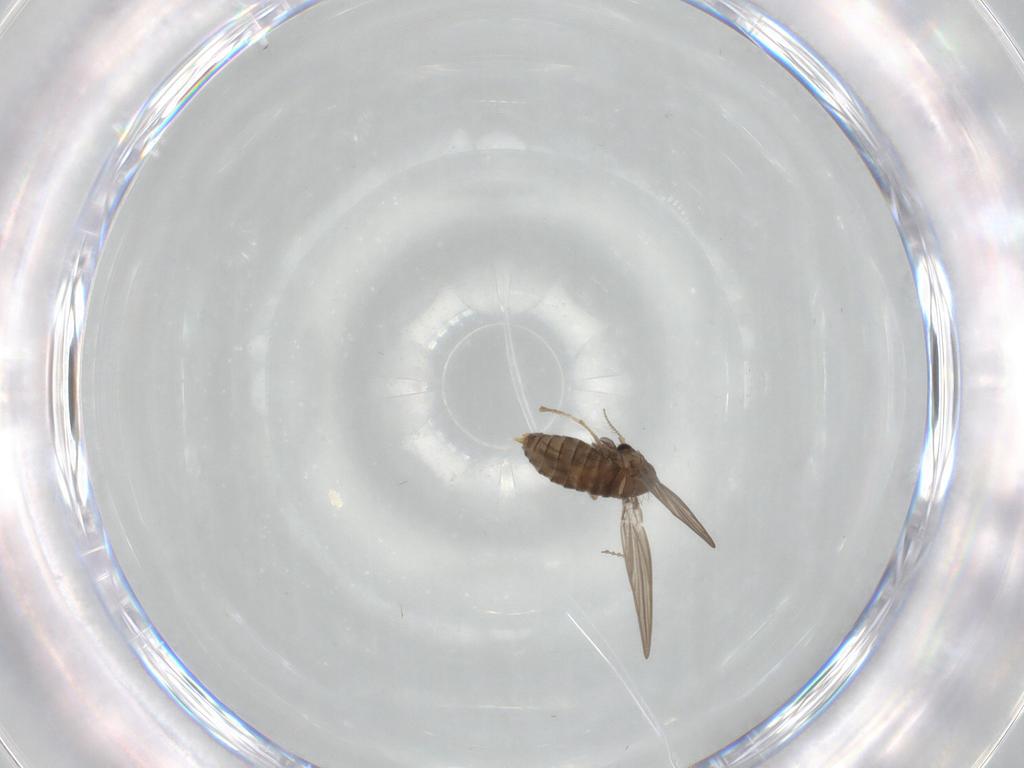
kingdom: Animalia
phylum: Arthropoda
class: Insecta
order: Diptera
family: Psychodidae
